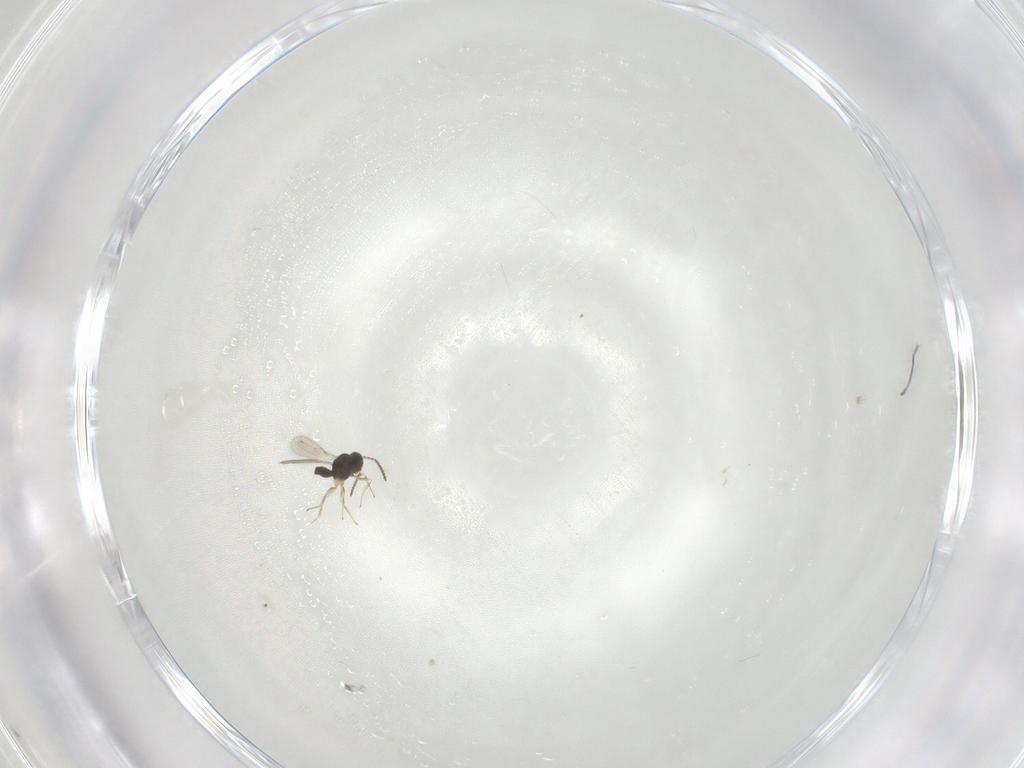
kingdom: Animalia
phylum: Arthropoda
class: Insecta
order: Hymenoptera
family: Scelionidae
